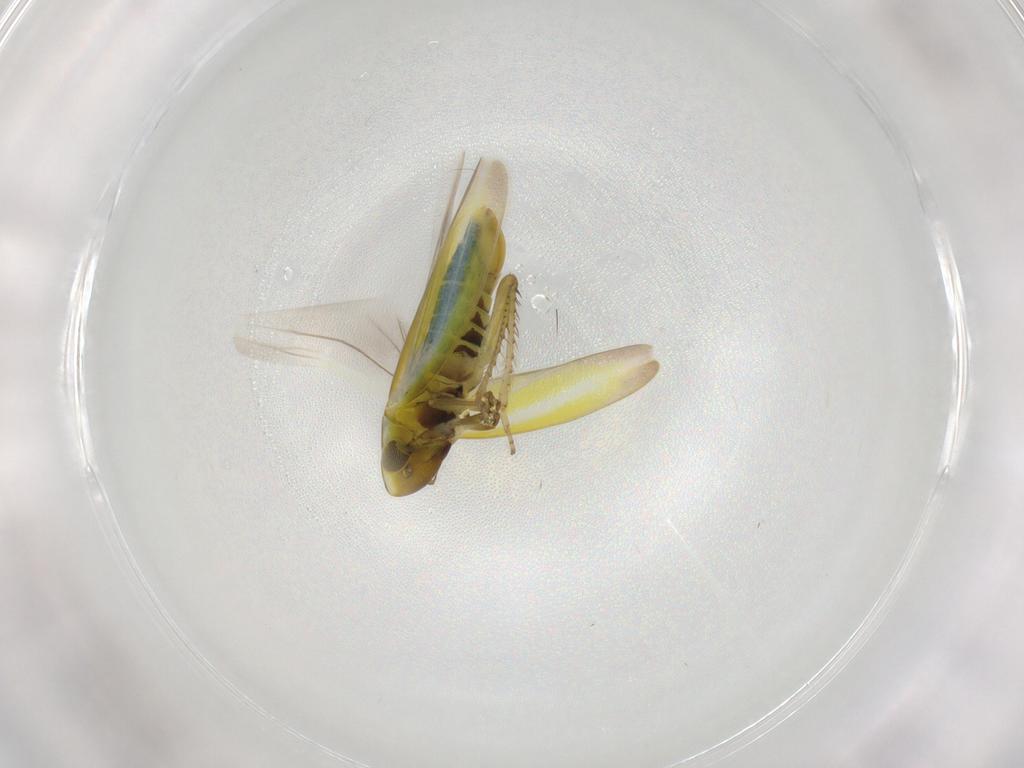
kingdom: Animalia
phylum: Arthropoda
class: Insecta
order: Hemiptera
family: Cicadellidae
